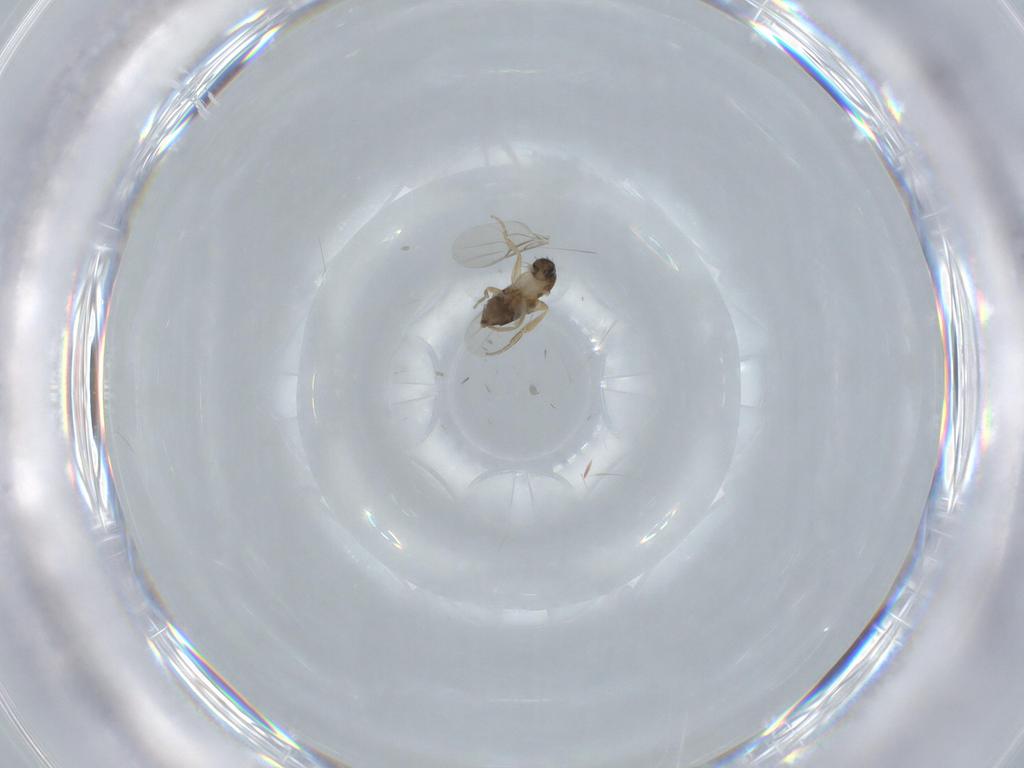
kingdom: Animalia
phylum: Arthropoda
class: Insecta
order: Diptera
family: Phoridae
